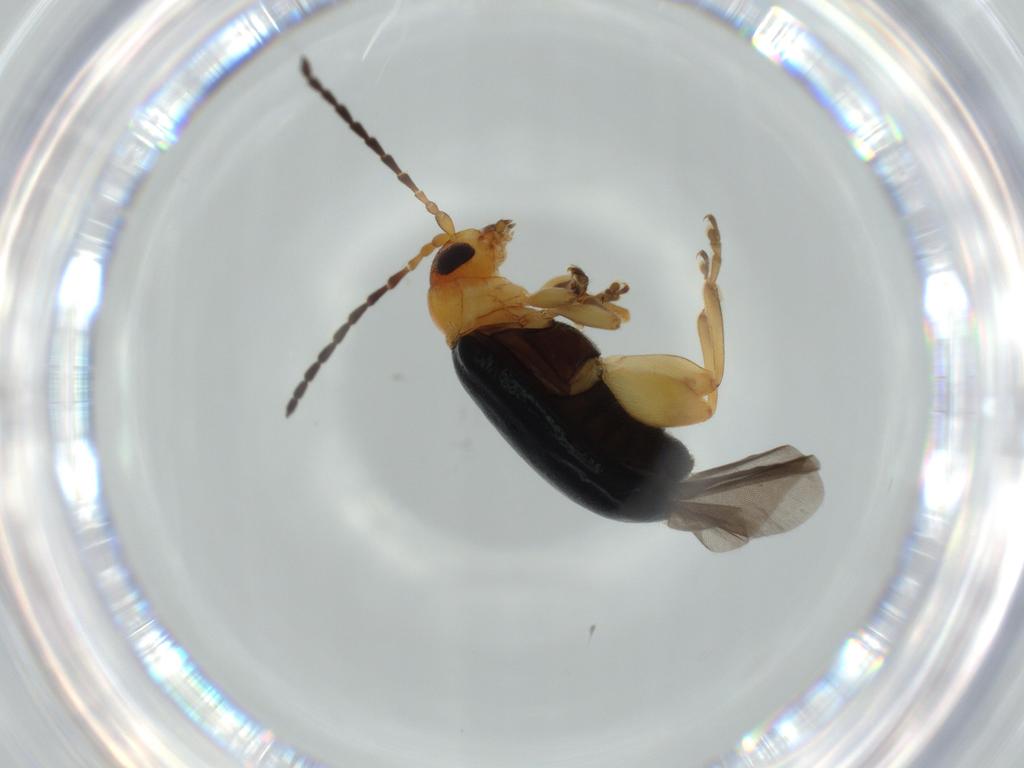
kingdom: Animalia
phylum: Arthropoda
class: Insecta
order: Coleoptera
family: Chrysomelidae
